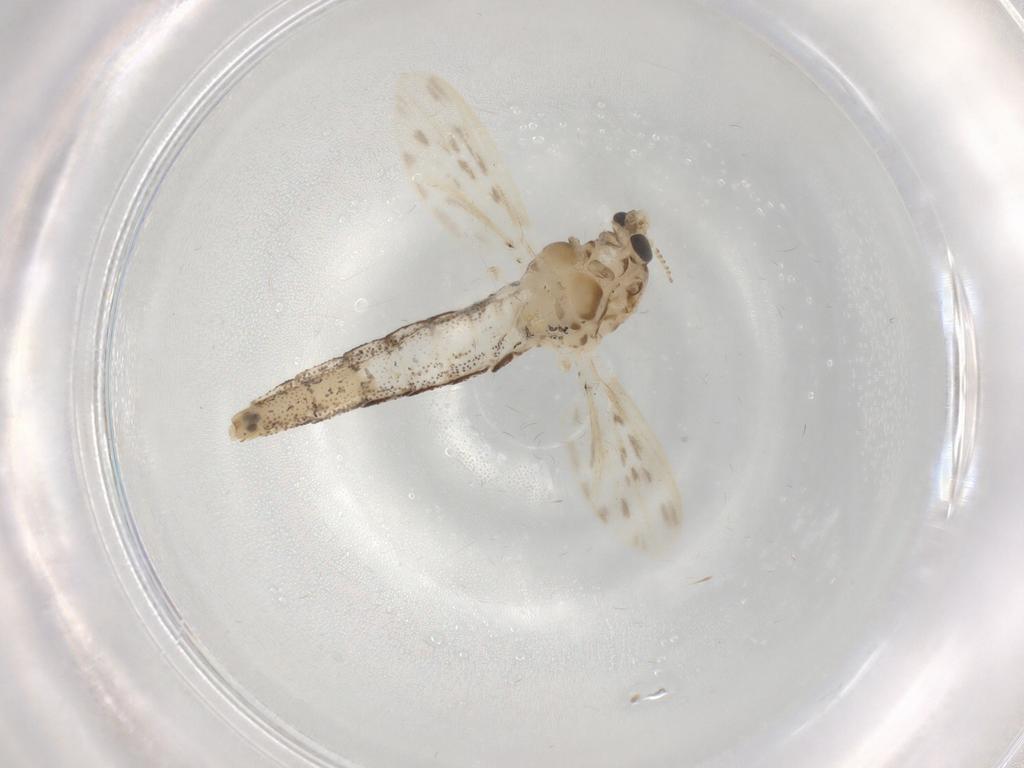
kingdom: Animalia
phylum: Arthropoda
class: Insecta
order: Diptera
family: Chaoboridae
